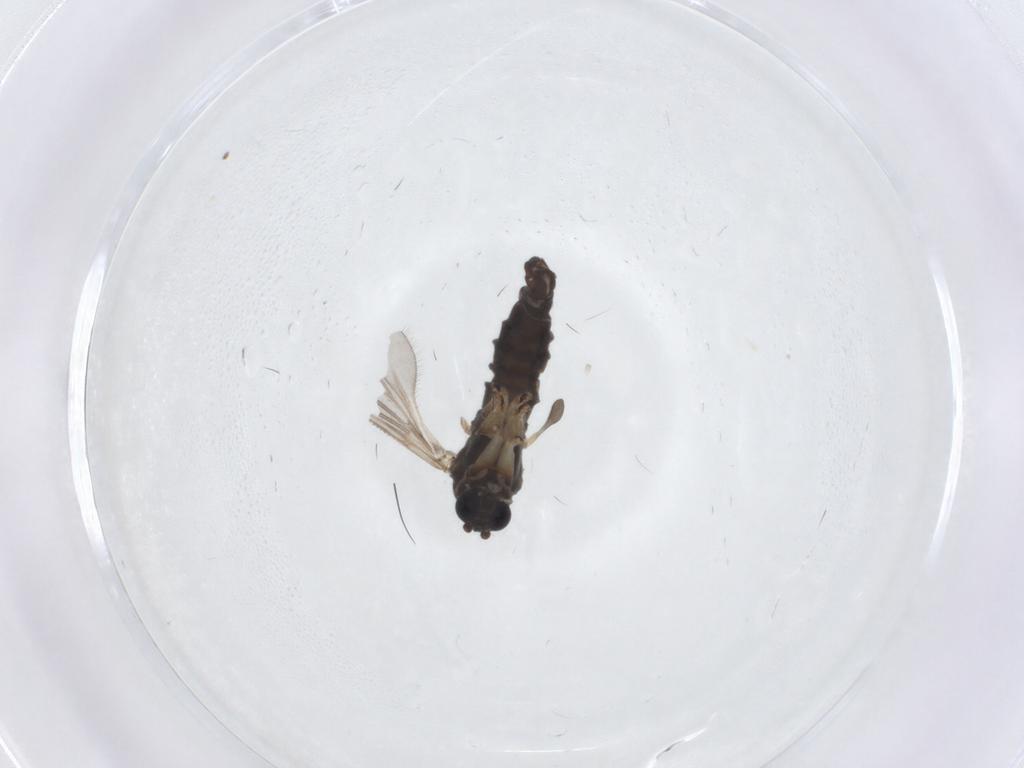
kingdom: Animalia
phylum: Arthropoda
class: Insecta
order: Diptera
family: Sciaridae
